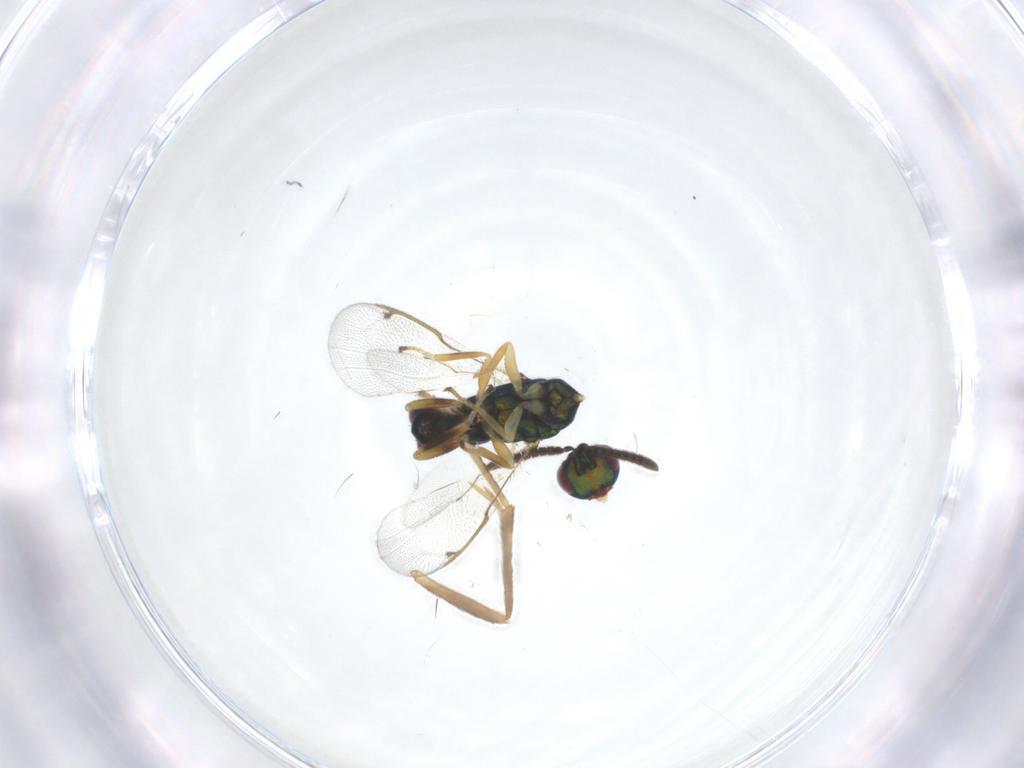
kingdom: Animalia
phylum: Arthropoda
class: Insecta
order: Hymenoptera
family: Torymidae
